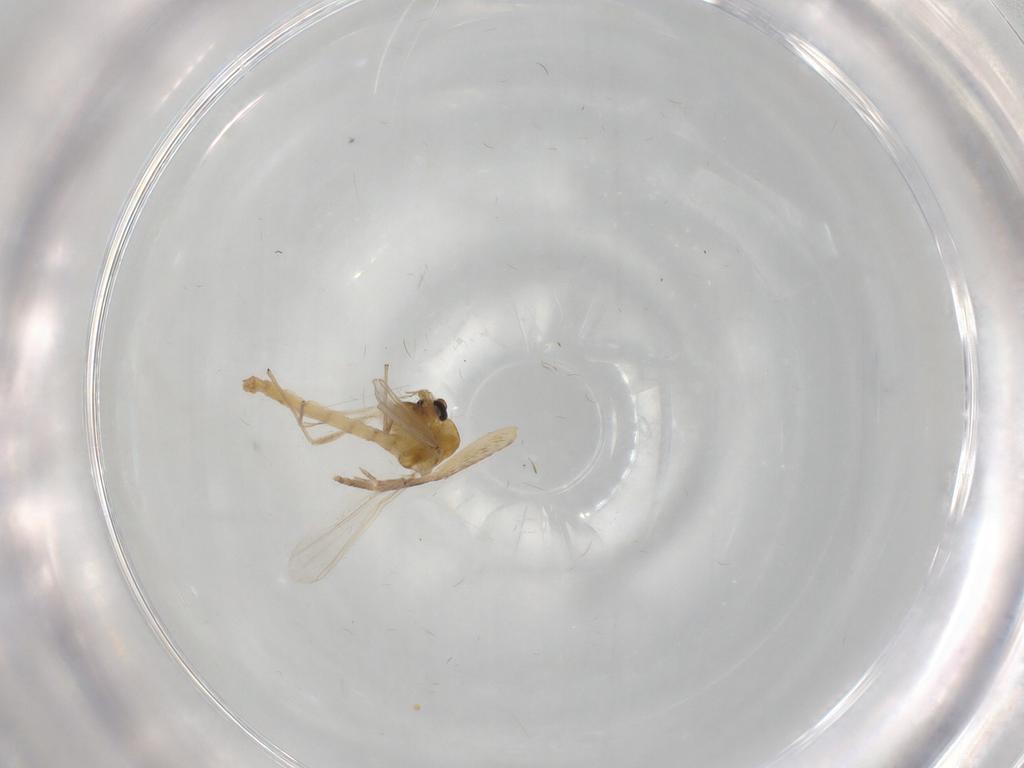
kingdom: Animalia
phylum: Arthropoda
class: Insecta
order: Diptera
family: Chironomidae
